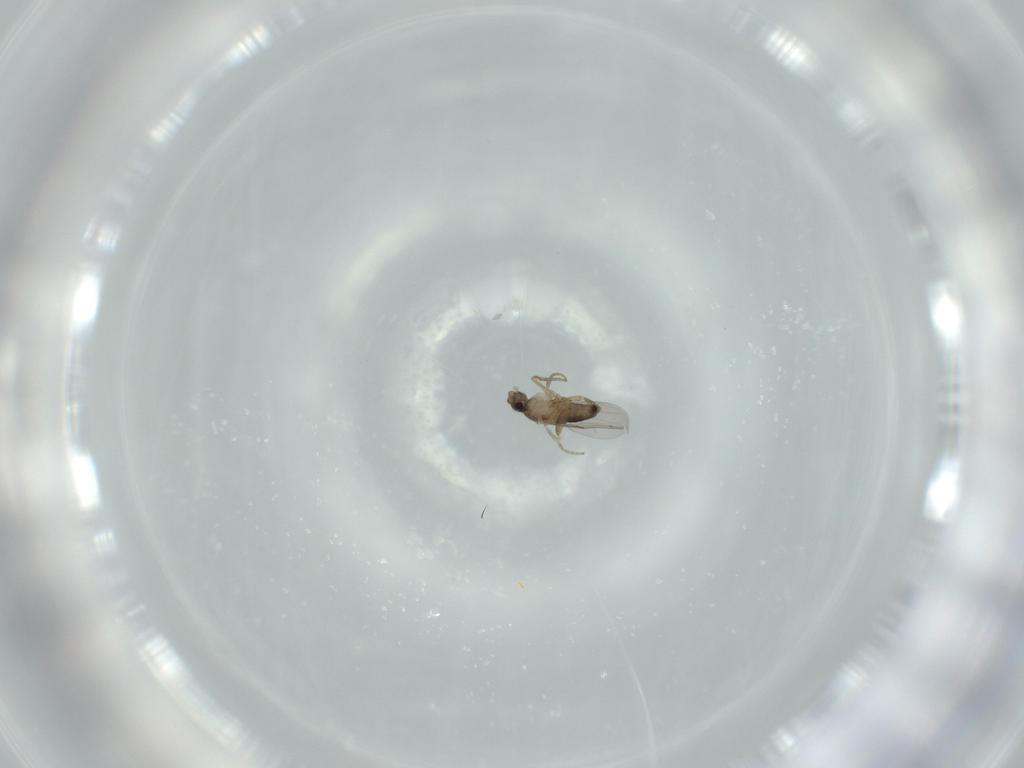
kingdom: Animalia
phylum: Arthropoda
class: Insecta
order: Diptera
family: Phoridae
